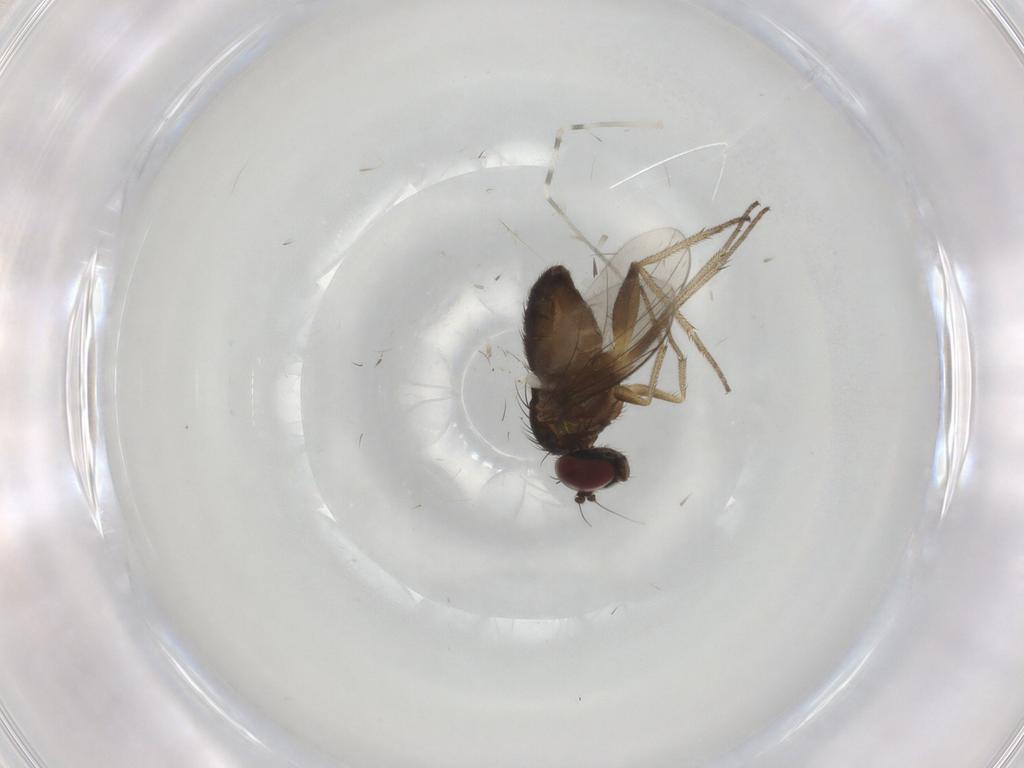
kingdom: Animalia
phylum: Arthropoda
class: Insecta
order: Diptera
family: Dolichopodidae
